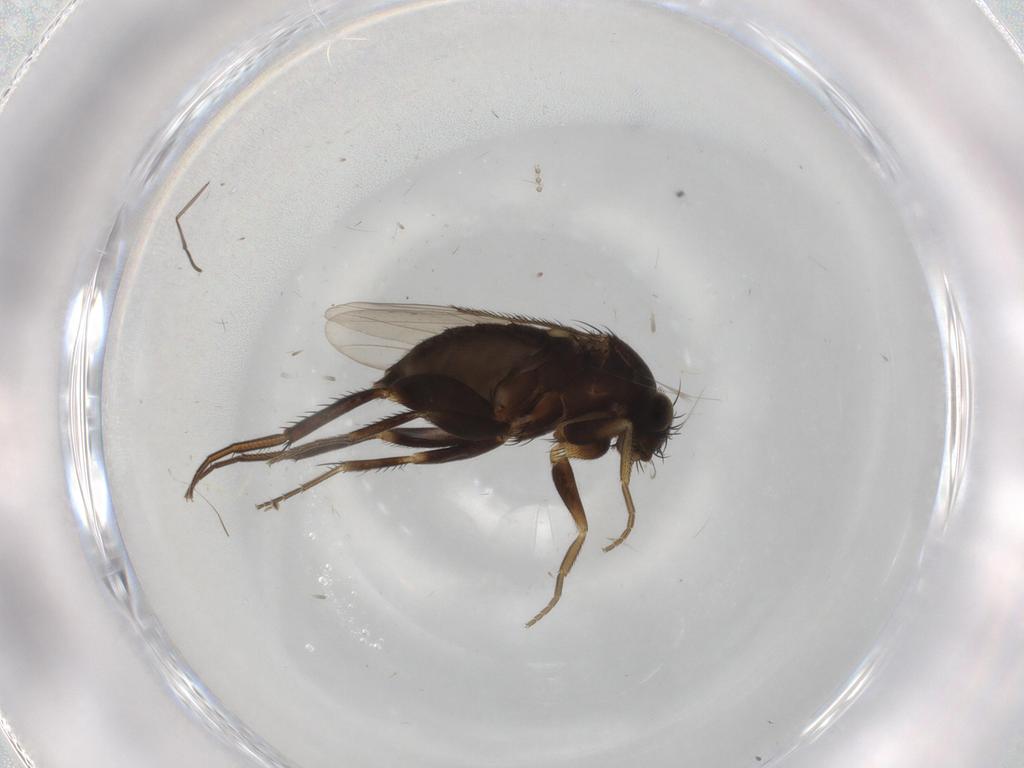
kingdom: Animalia
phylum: Arthropoda
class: Insecta
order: Diptera
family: Phoridae
